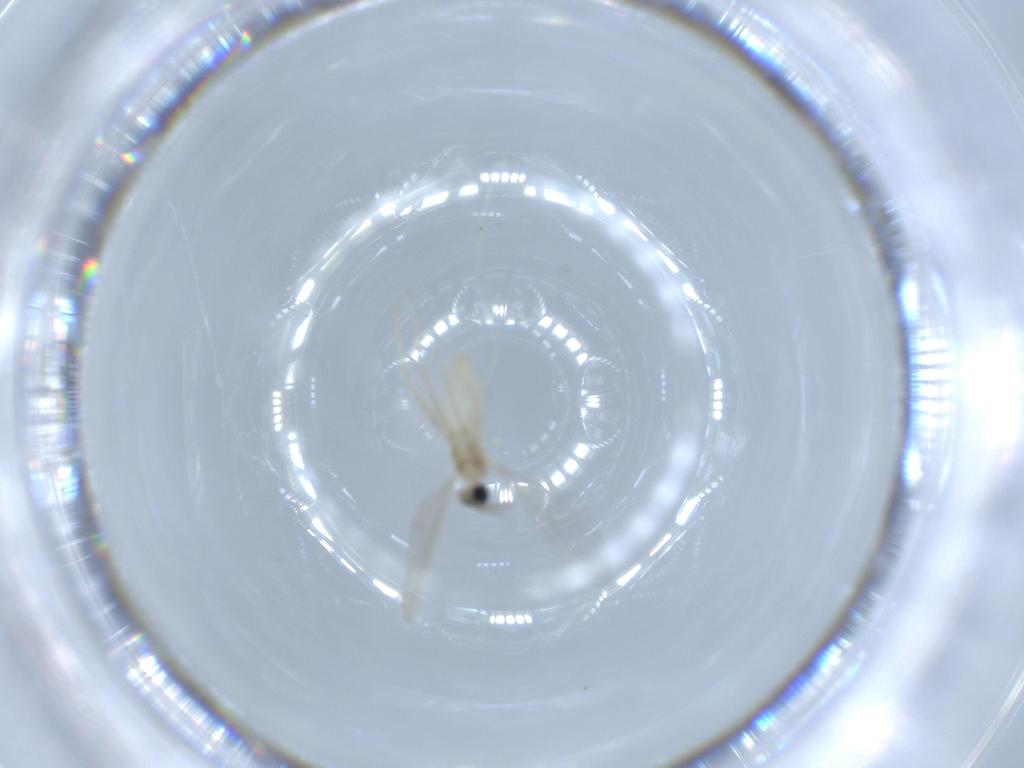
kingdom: Animalia
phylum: Arthropoda
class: Insecta
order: Diptera
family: Cecidomyiidae
